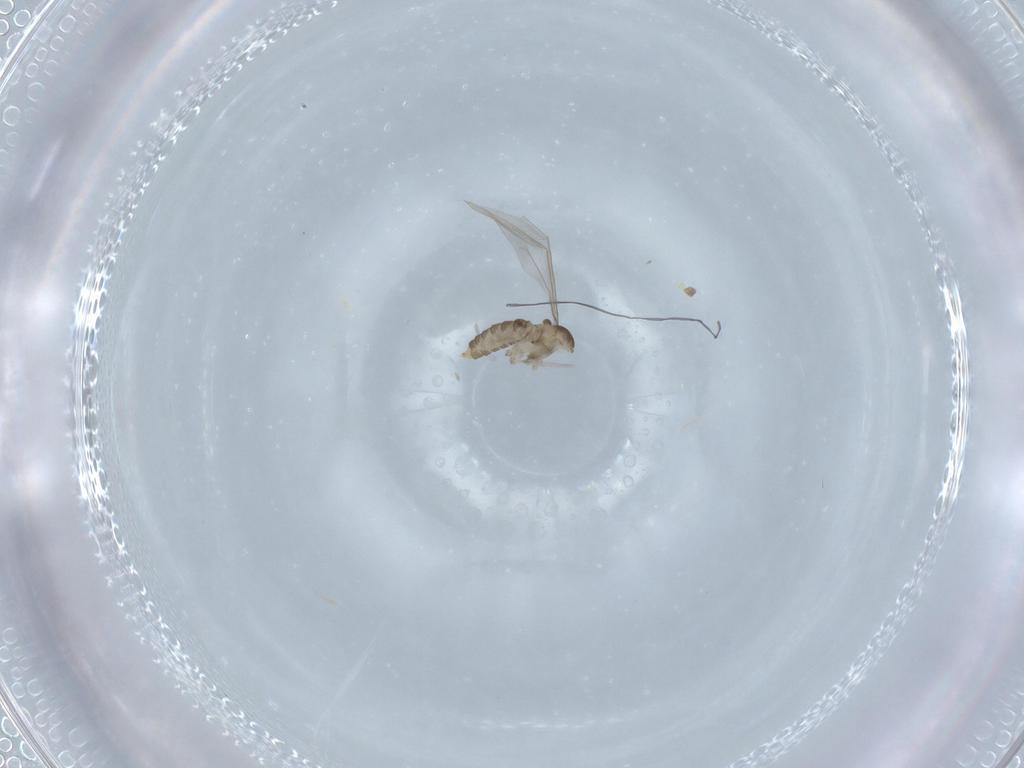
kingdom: Animalia
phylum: Arthropoda
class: Insecta
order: Diptera
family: Cecidomyiidae
